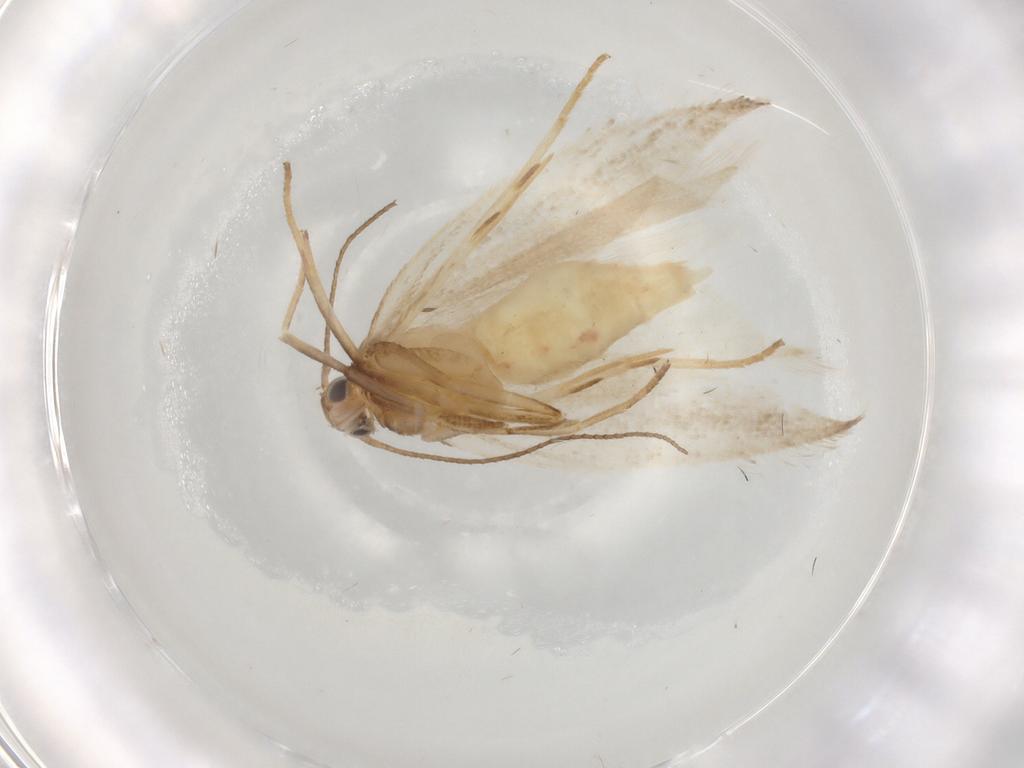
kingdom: Animalia
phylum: Arthropoda
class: Insecta
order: Lepidoptera
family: Gelechiidae
